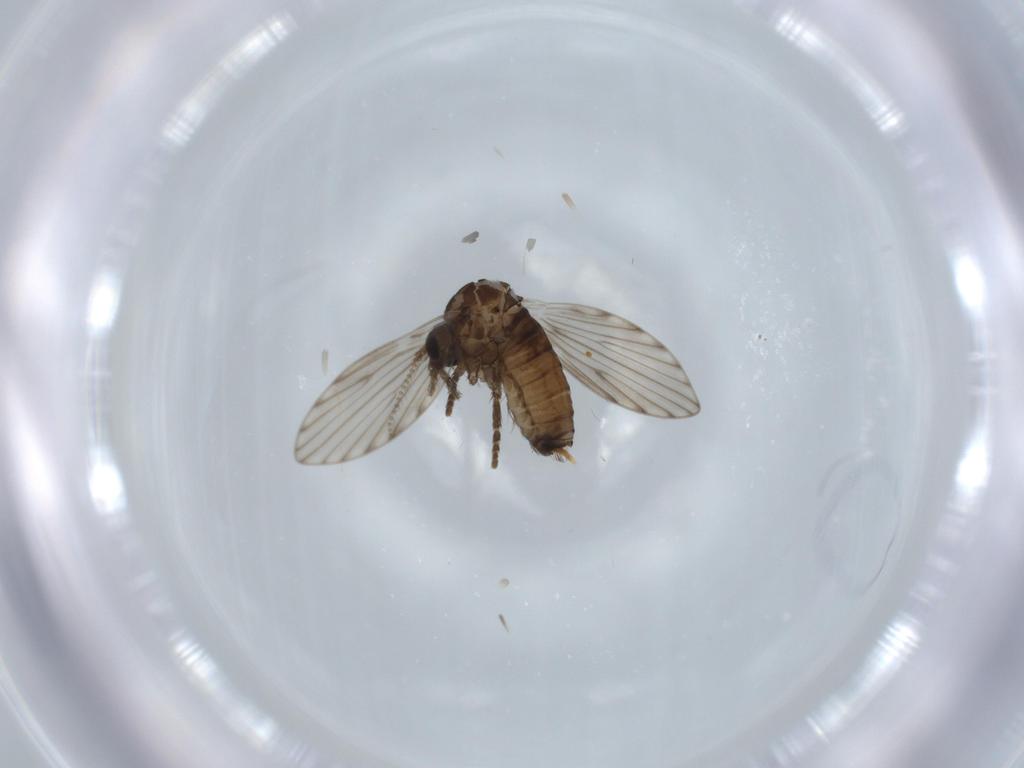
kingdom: Animalia
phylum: Arthropoda
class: Insecta
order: Diptera
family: Psychodidae
